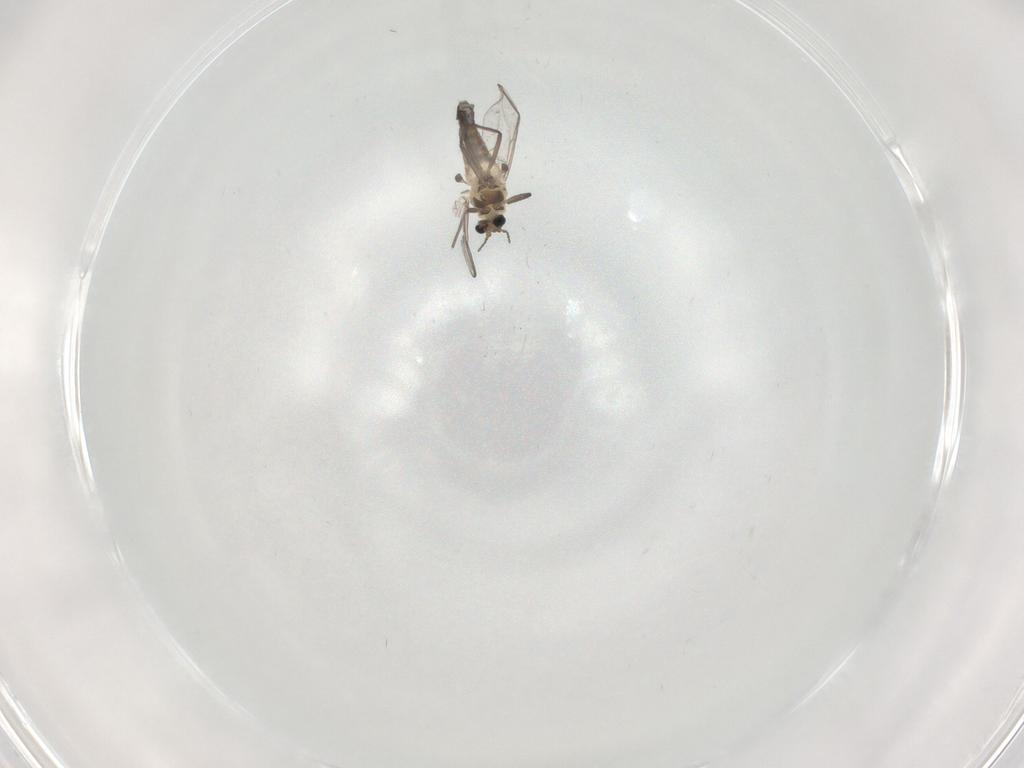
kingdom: Animalia
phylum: Arthropoda
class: Insecta
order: Diptera
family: Chironomidae
